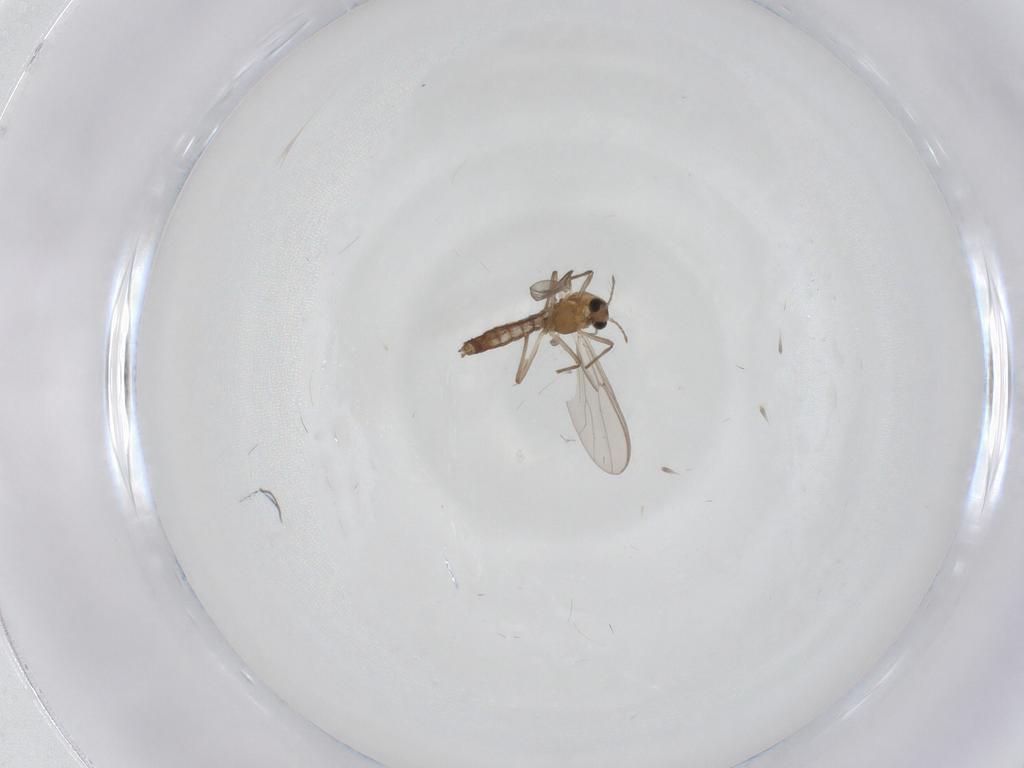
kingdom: Animalia
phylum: Arthropoda
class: Insecta
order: Diptera
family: Chironomidae
